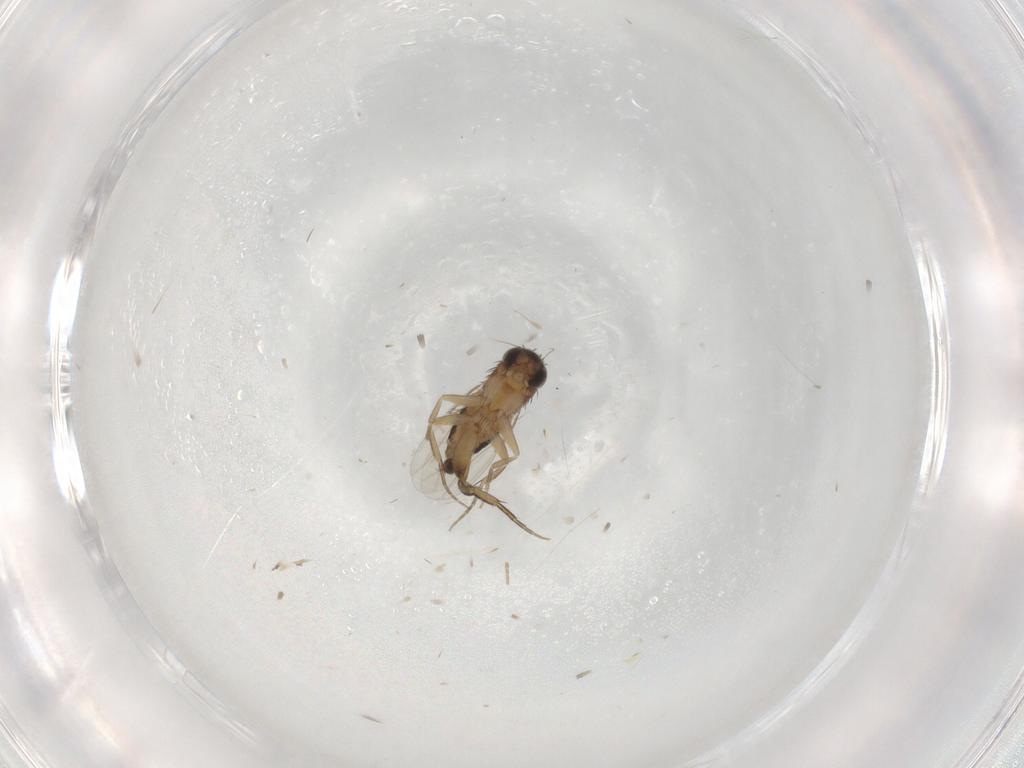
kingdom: Animalia
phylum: Arthropoda
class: Insecta
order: Diptera
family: Phoridae
